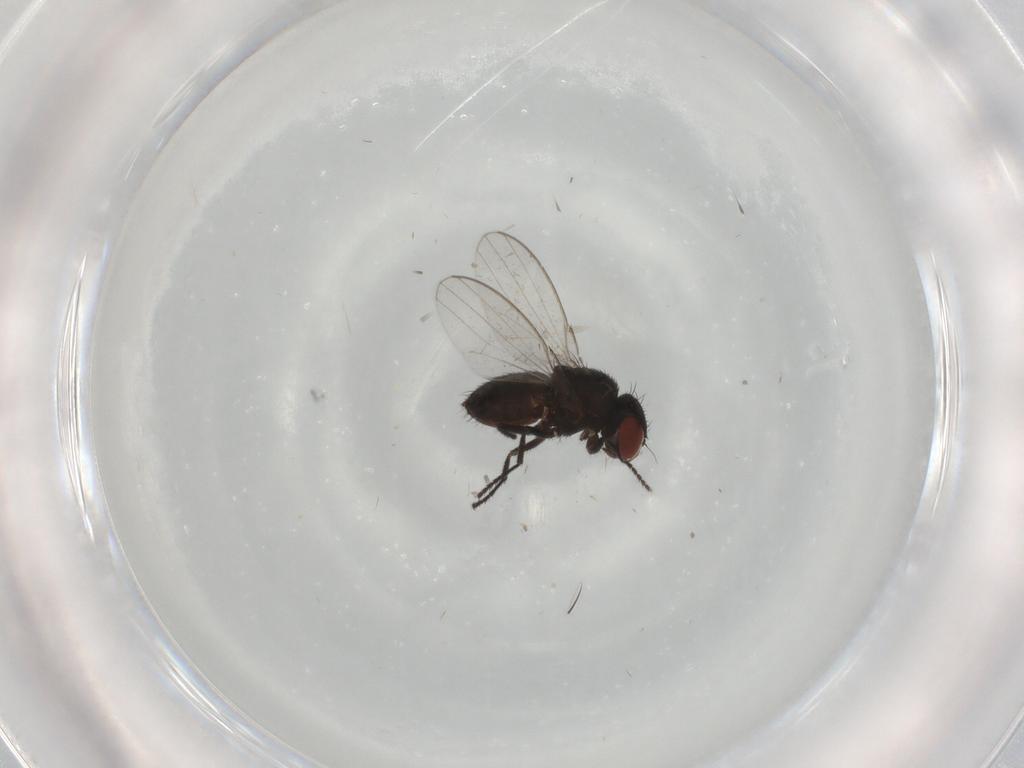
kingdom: Animalia
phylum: Arthropoda
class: Insecta
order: Diptera
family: Milichiidae
